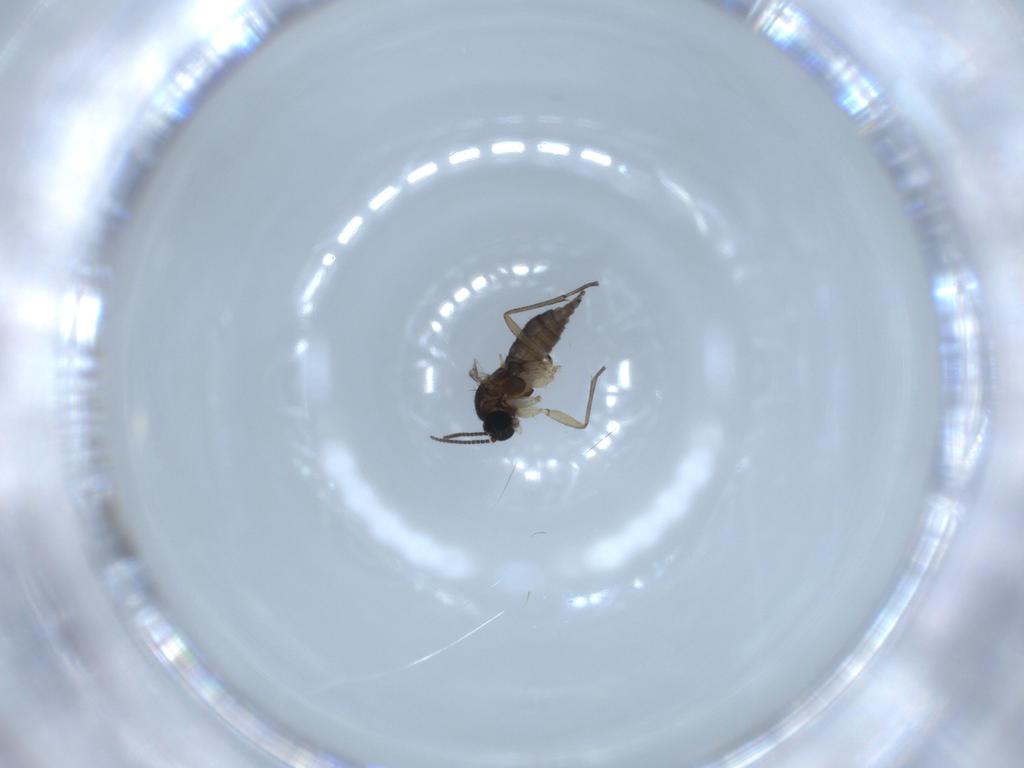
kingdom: Animalia
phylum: Arthropoda
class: Insecta
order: Diptera
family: Sciaridae
